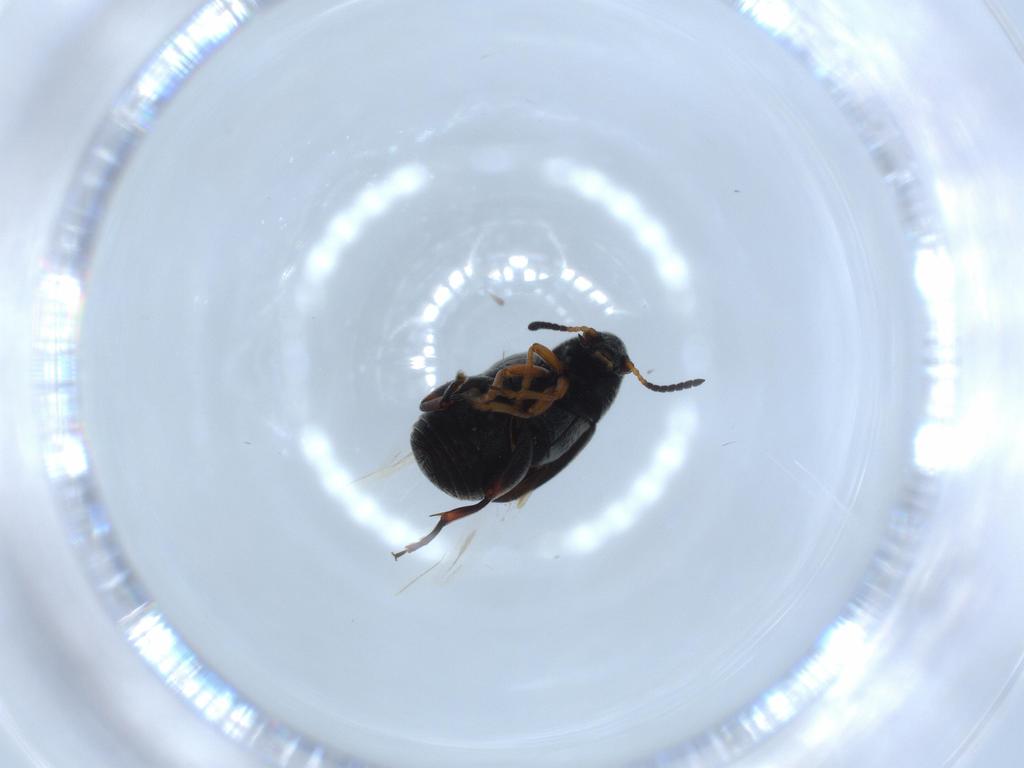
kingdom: Animalia
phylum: Arthropoda
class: Insecta
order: Coleoptera
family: Chrysomelidae
